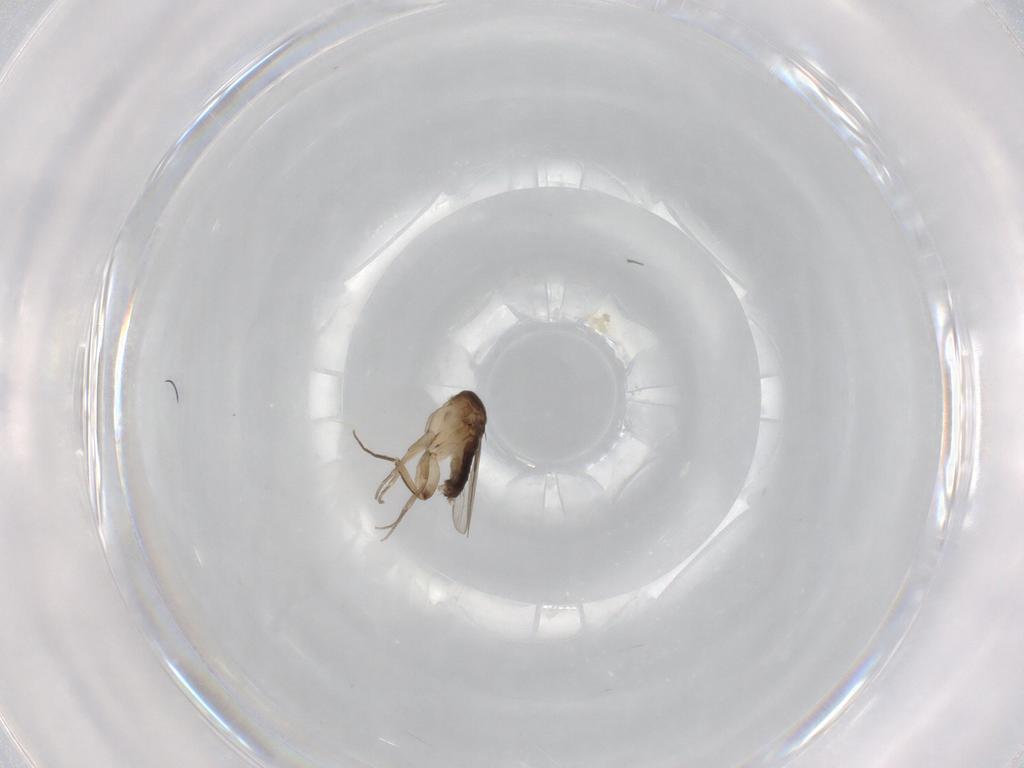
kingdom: Animalia
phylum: Arthropoda
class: Insecta
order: Diptera
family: Phoridae
